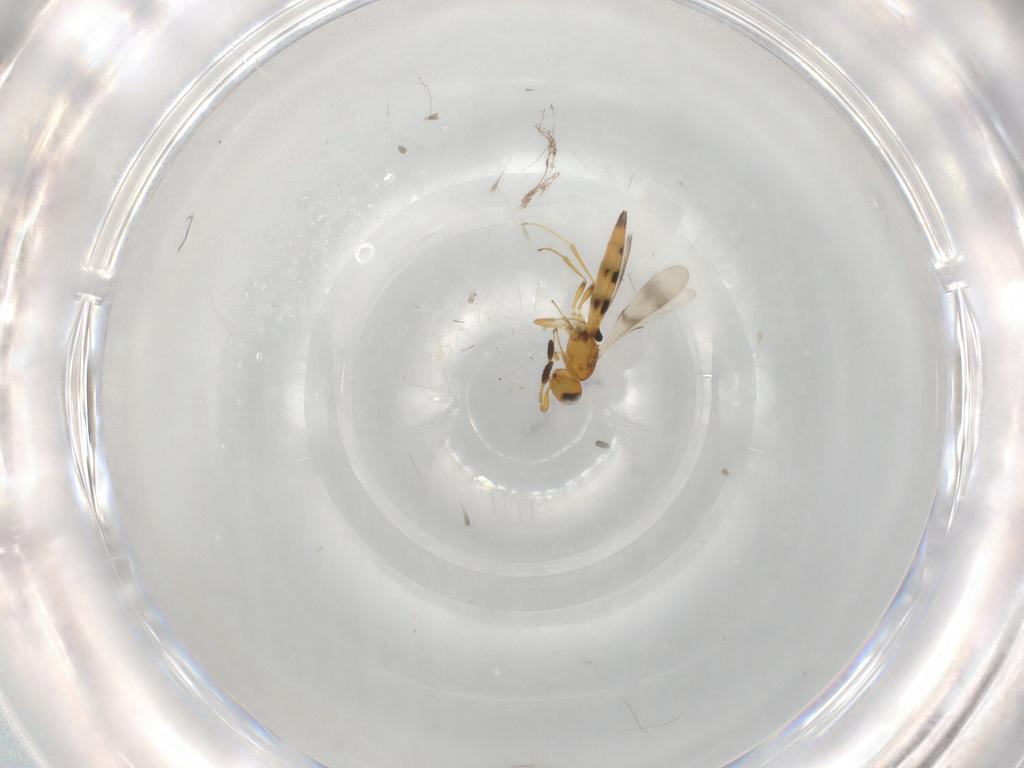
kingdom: Animalia
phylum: Arthropoda
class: Insecta
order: Hymenoptera
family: Scelionidae
